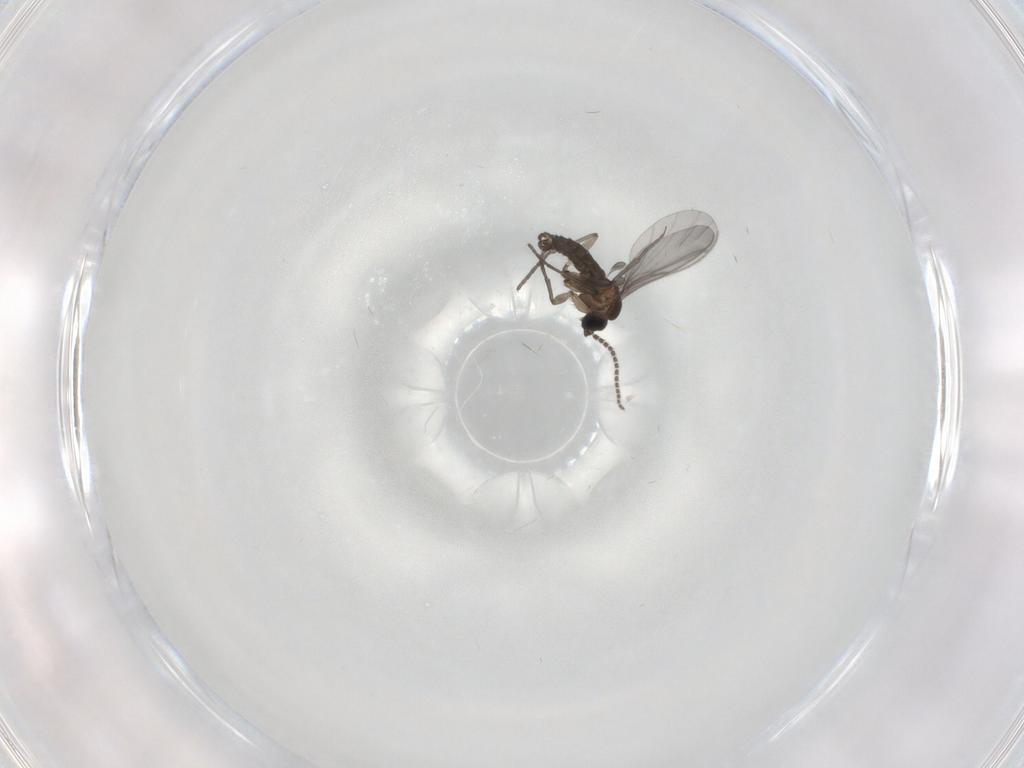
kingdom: Animalia
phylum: Arthropoda
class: Insecta
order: Diptera
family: Sciaridae
